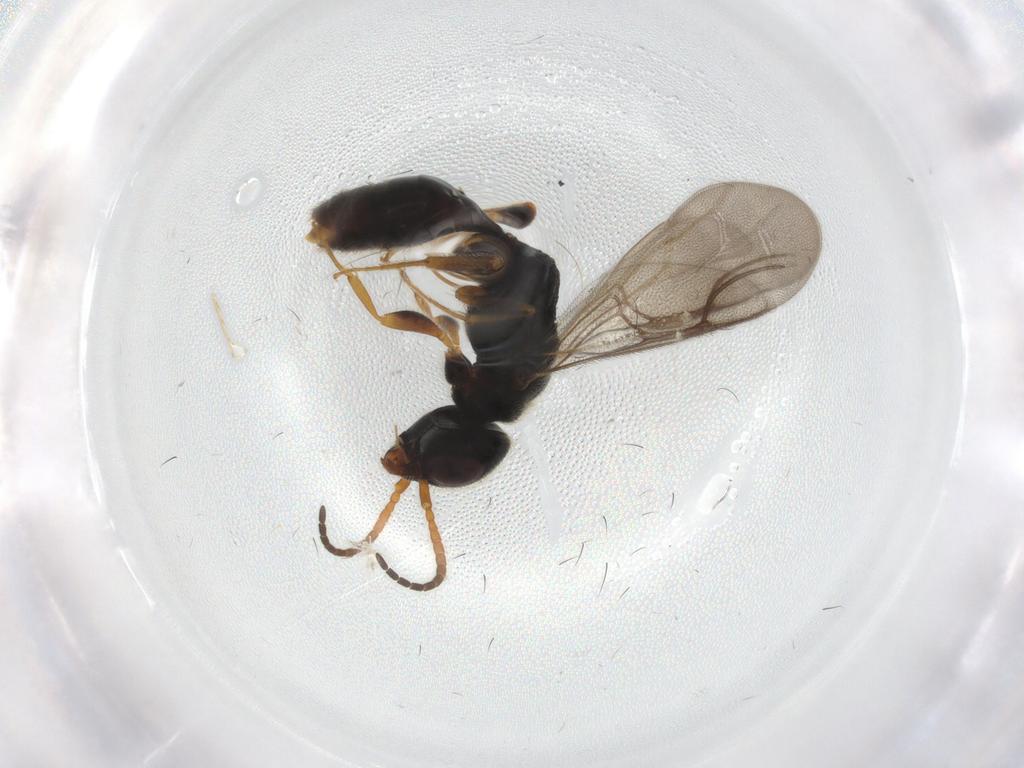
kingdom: Animalia
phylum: Arthropoda
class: Insecta
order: Hymenoptera
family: Bethylidae
